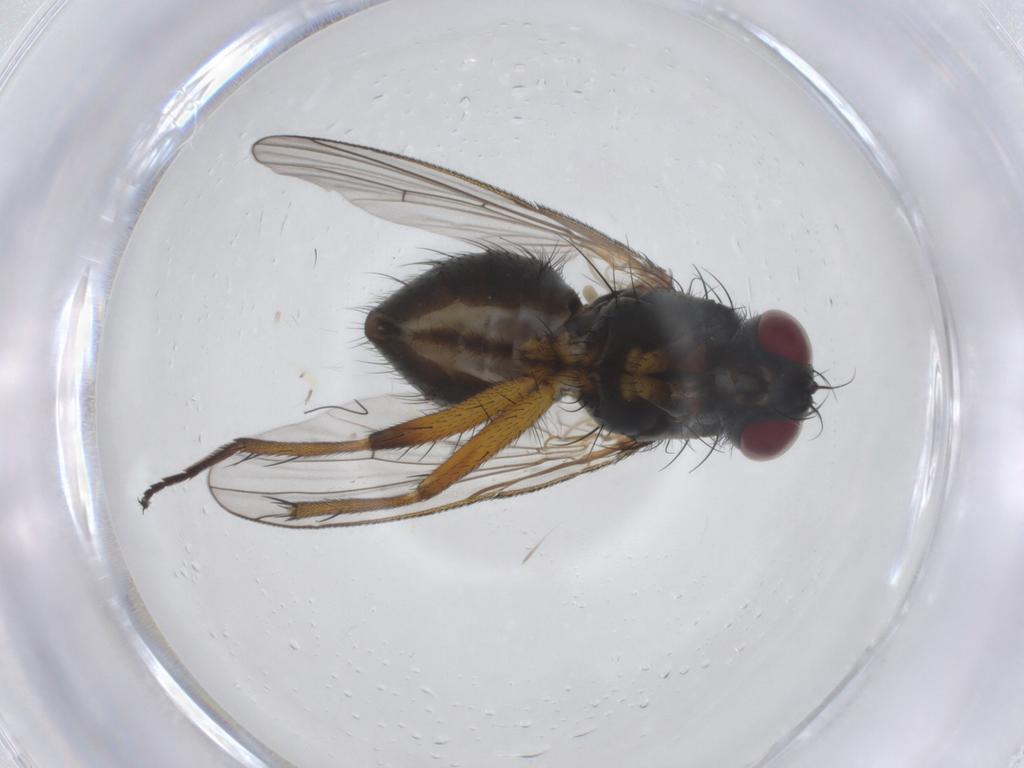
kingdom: Animalia
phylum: Arthropoda
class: Insecta
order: Diptera
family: Muscidae
